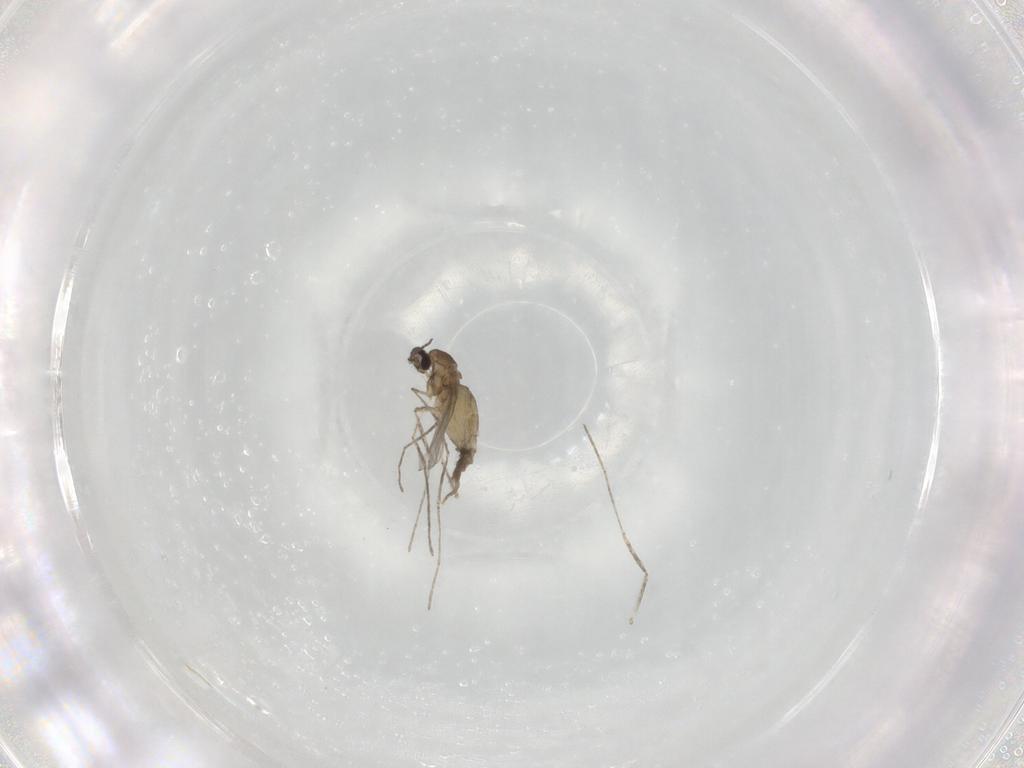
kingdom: Animalia
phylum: Arthropoda
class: Insecta
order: Diptera
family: Cecidomyiidae
